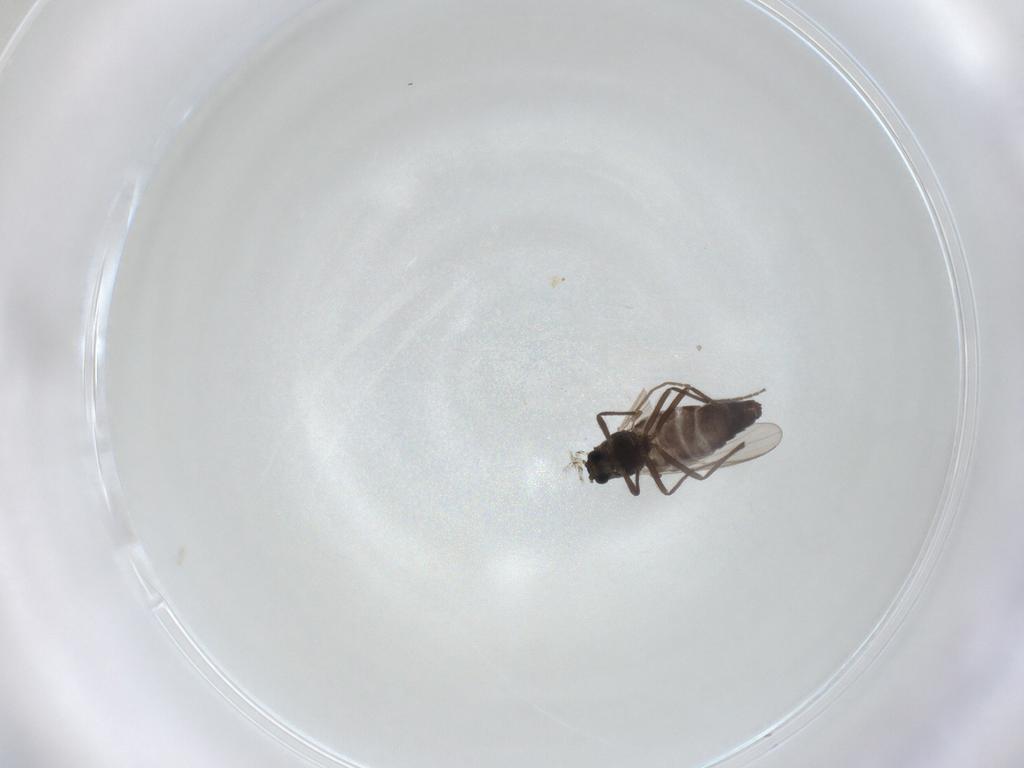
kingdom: Animalia
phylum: Arthropoda
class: Insecta
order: Diptera
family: Chironomidae
